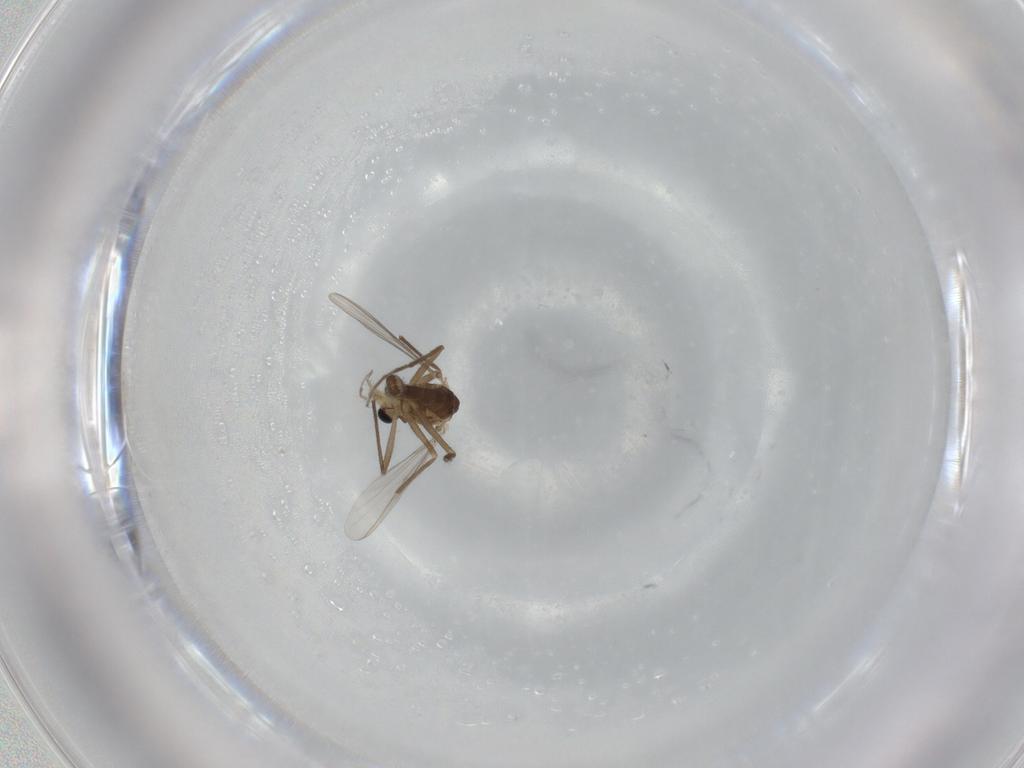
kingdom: Animalia
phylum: Arthropoda
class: Insecta
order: Diptera
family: Chironomidae
